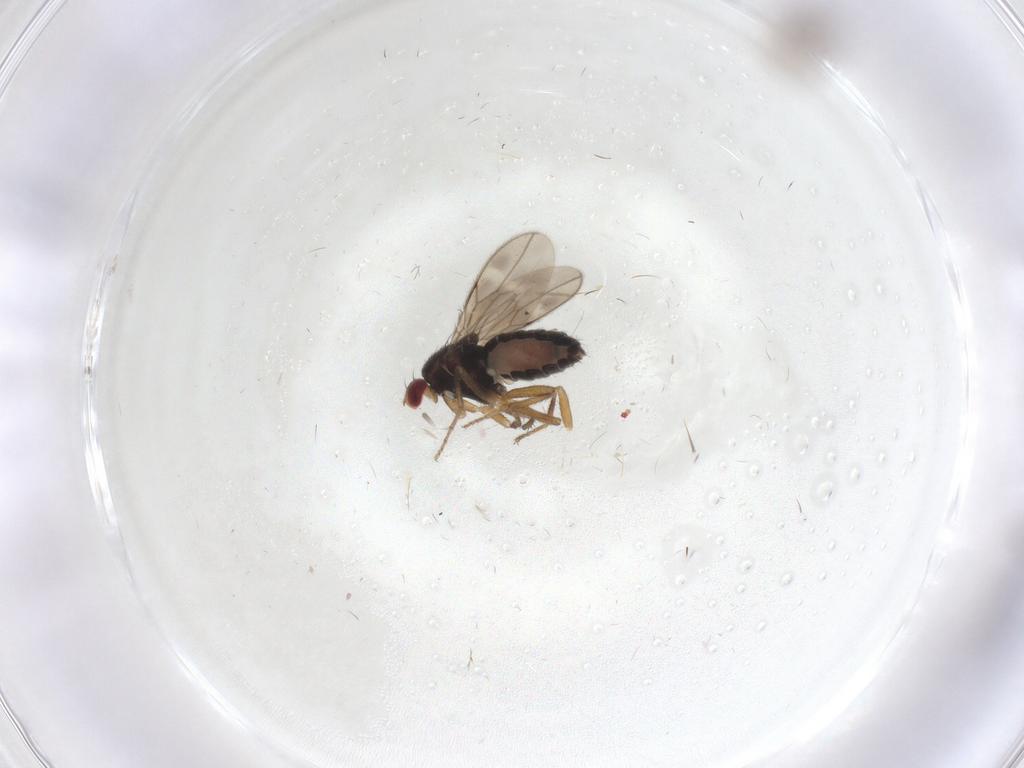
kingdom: Animalia
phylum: Arthropoda
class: Insecta
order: Diptera
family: Sphaeroceridae
